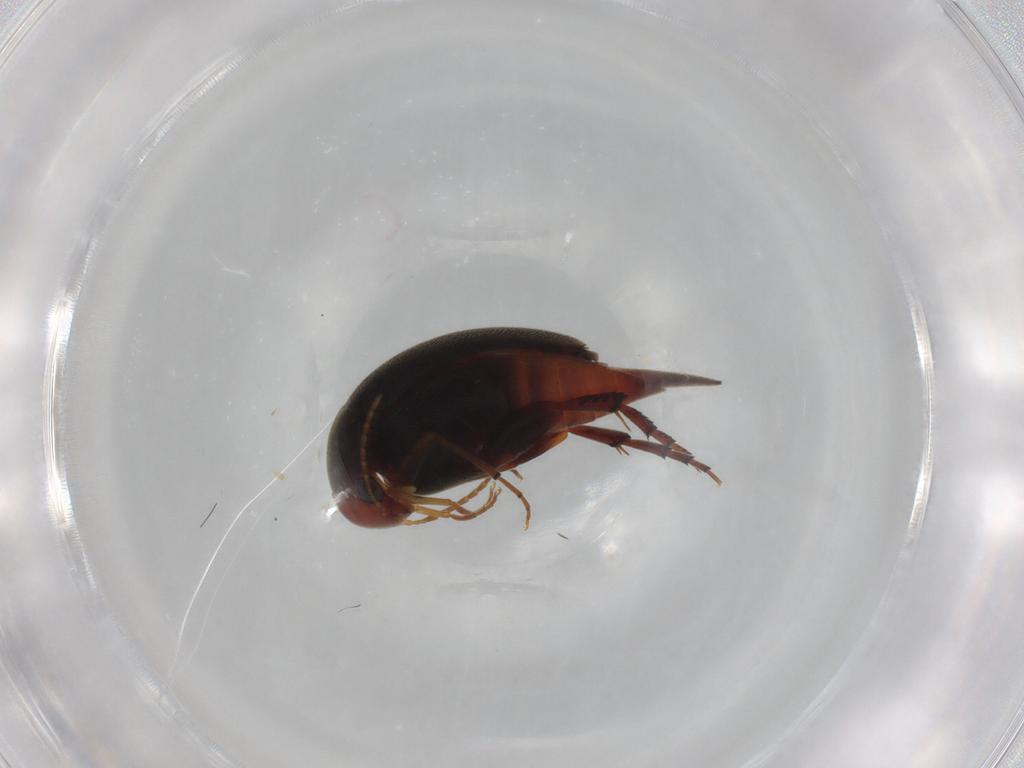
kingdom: Animalia
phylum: Arthropoda
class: Insecta
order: Coleoptera
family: Mordellidae
